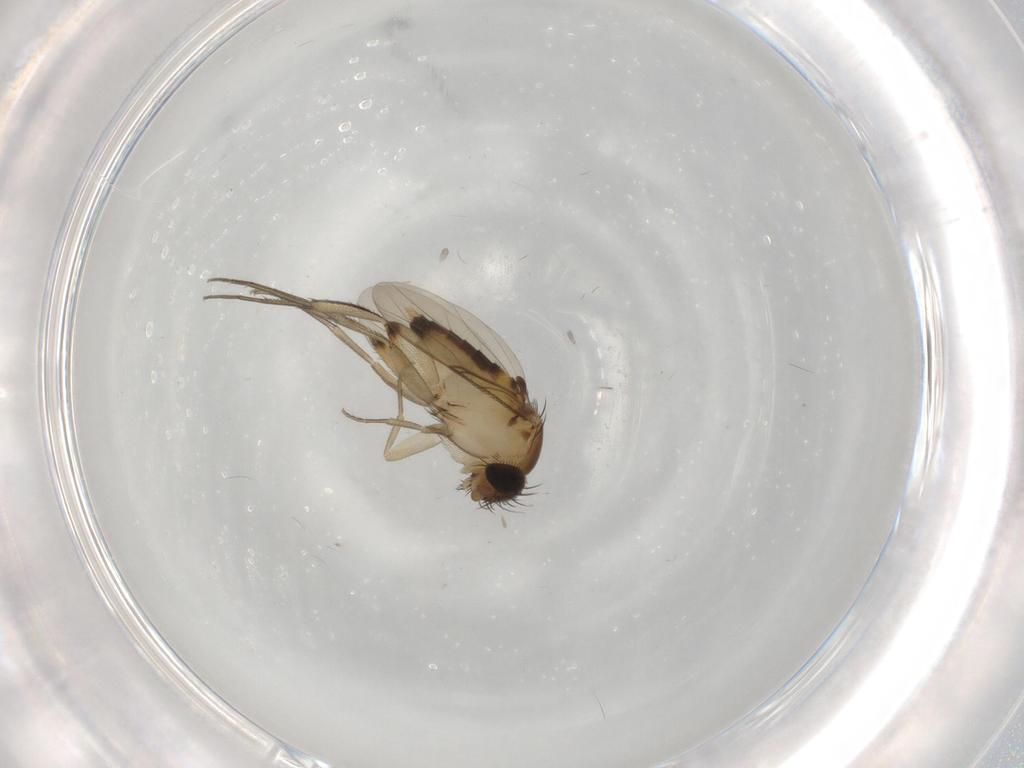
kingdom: Animalia
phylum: Arthropoda
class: Insecta
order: Diptera
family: Phoridae
